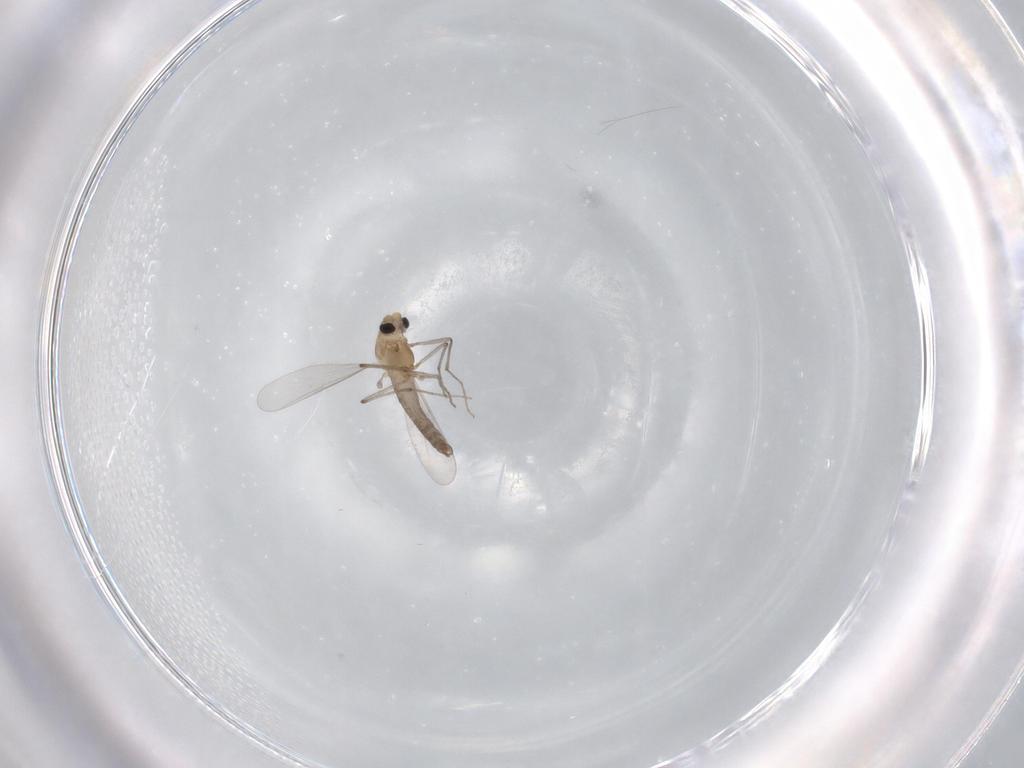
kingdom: Animalia
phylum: Arthropoda
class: Insecta
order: Diptera
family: Chironomidae
